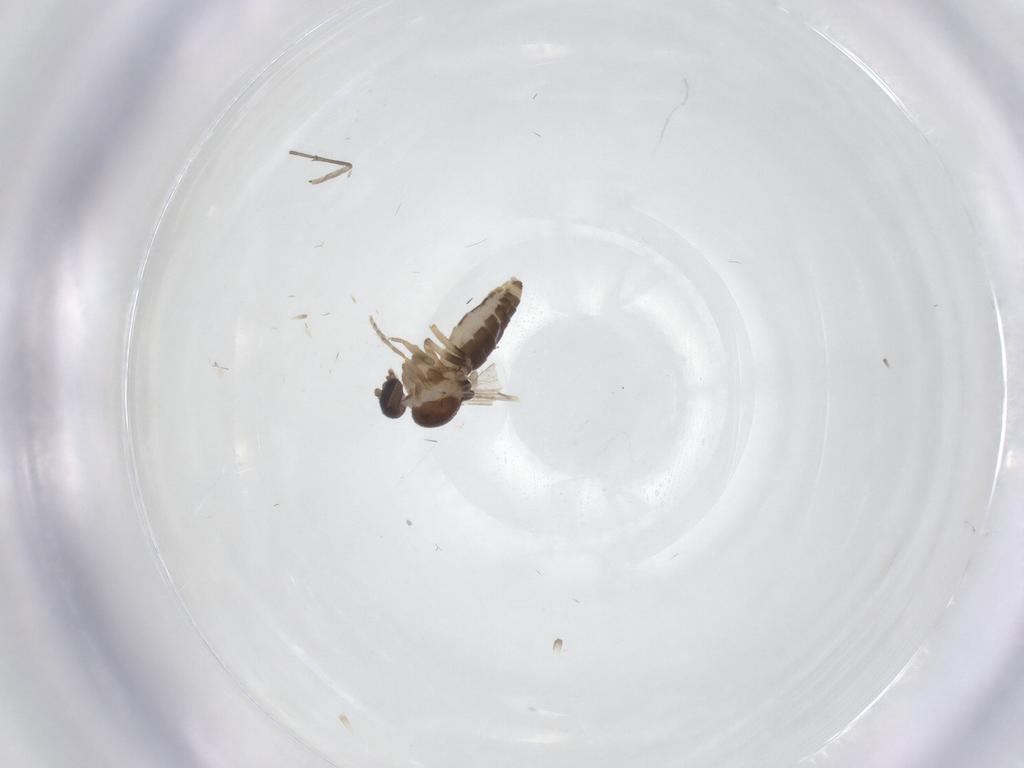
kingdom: Animalia
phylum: Arthropoda
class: Insecta
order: Diptera
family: Ceratopogonidae
